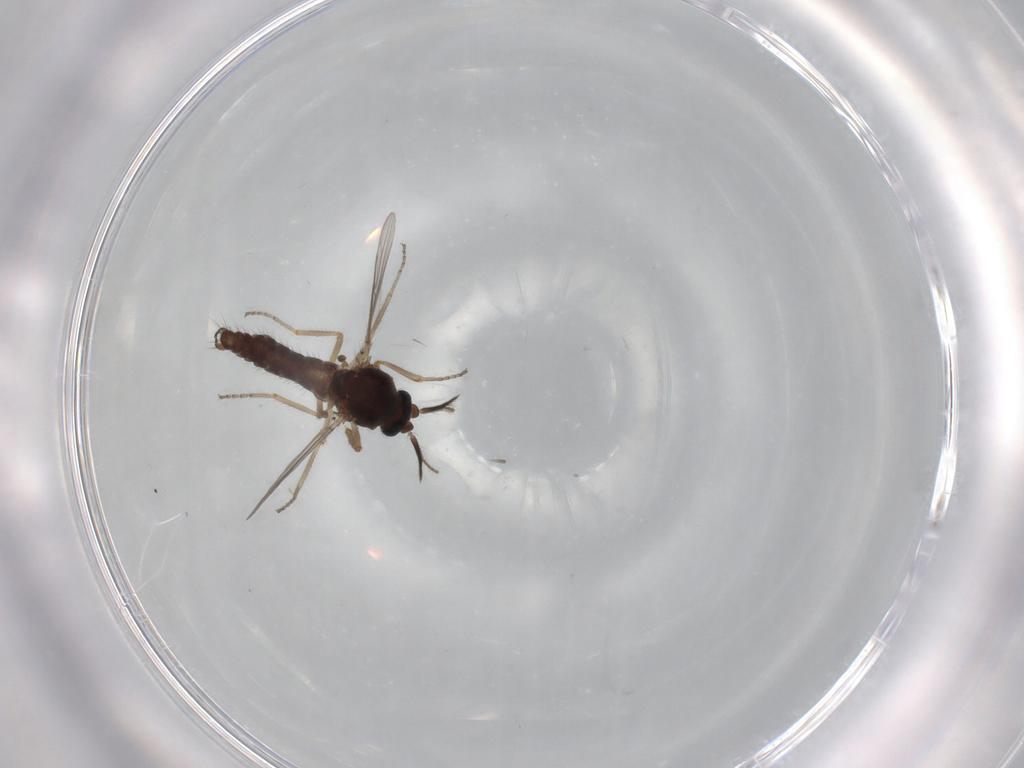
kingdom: Animalia
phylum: Arthropoda
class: Insecta
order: Diptera
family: Ceratopogonidae
